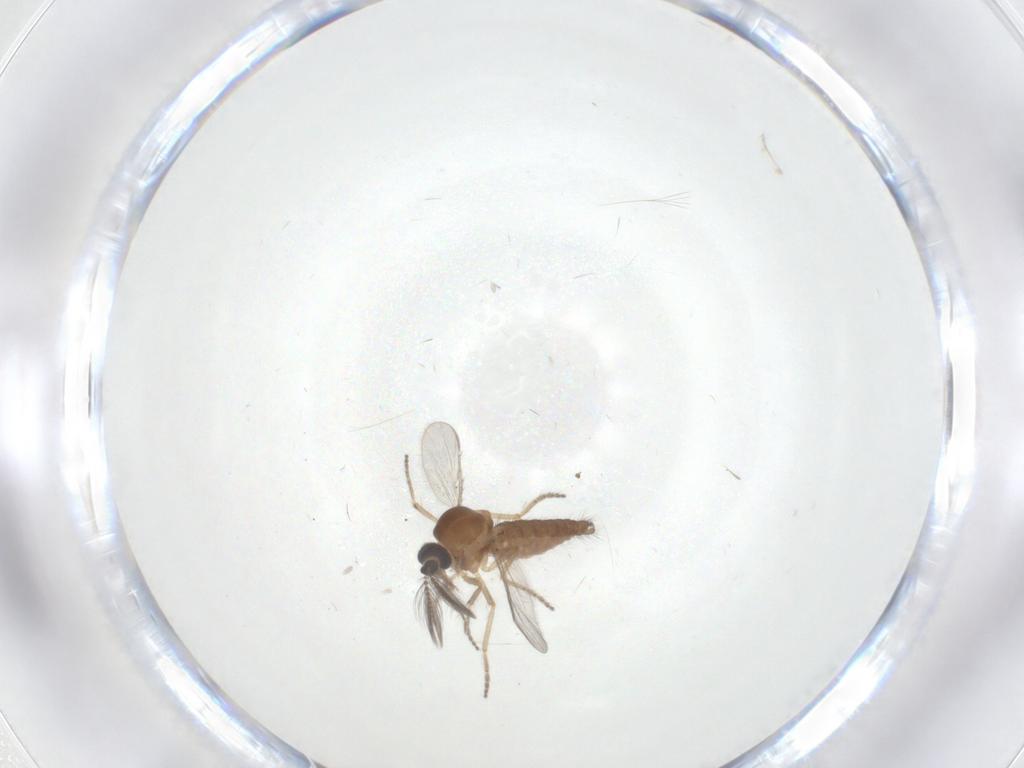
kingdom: Animalia
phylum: Arthropoda
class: Insecta
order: Diptera
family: Ceratopogonidae
